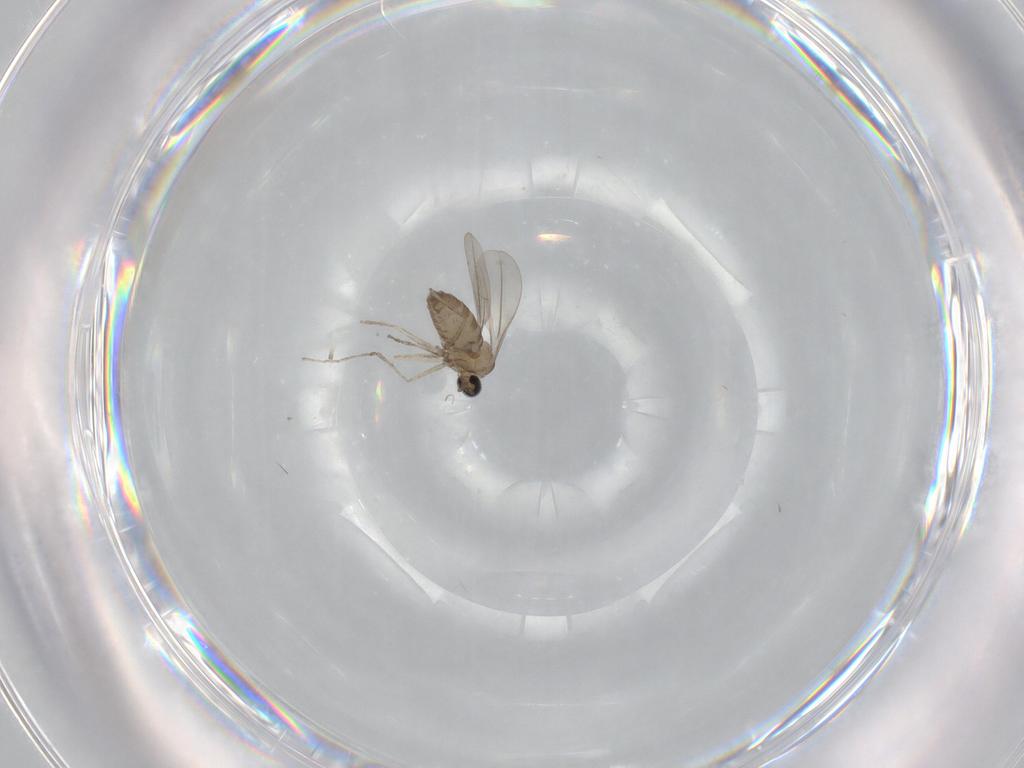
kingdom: Animalia
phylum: Arthropoda
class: Insecta
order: Diptera
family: Cecidomyiidae
